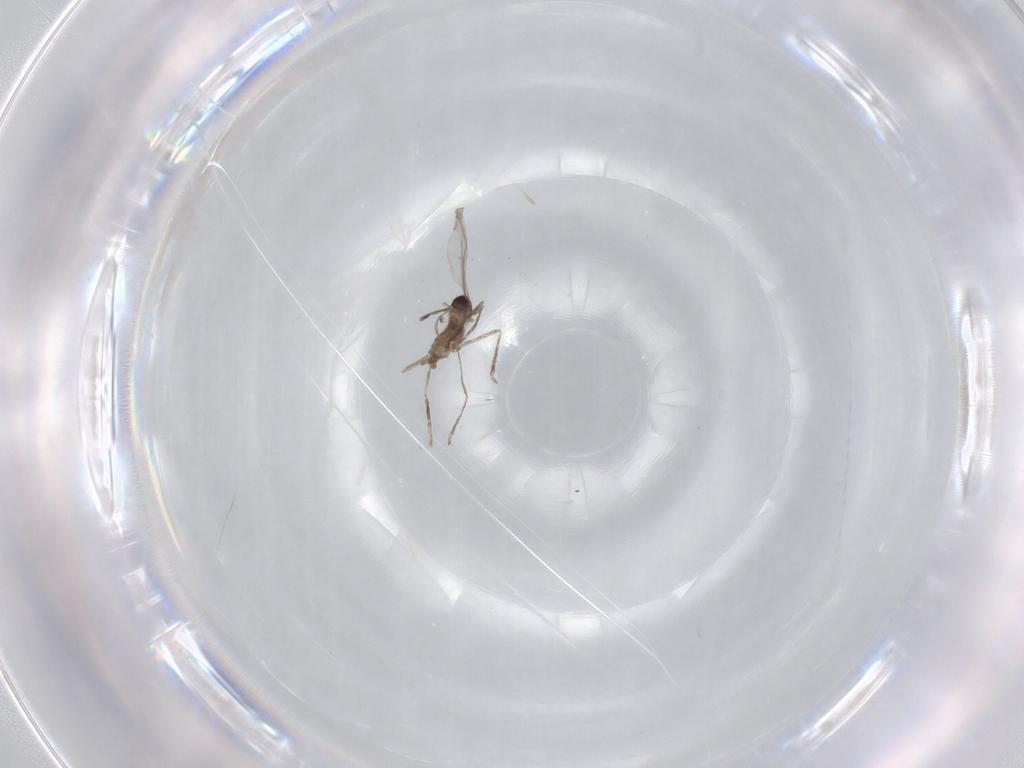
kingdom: Animalia
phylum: Arthropoda
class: Insecta
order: Diptera
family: Cecidomyiidae
